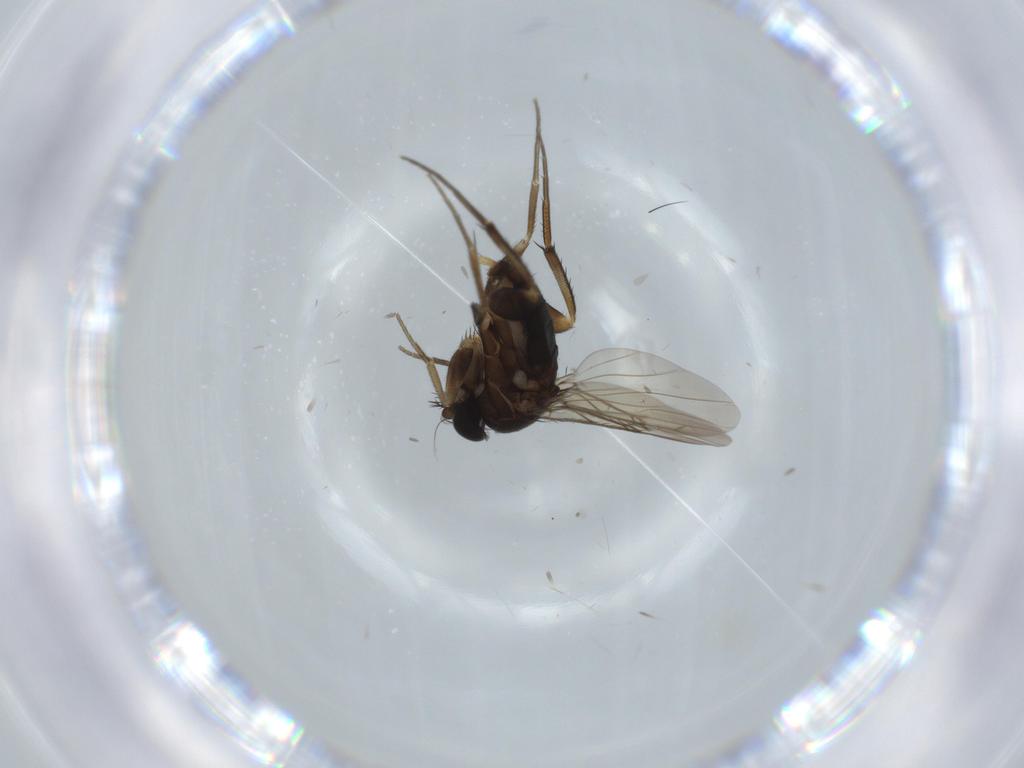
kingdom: Animalia
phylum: Arthropoda
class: Insecta
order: Diptera
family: Phoridae
